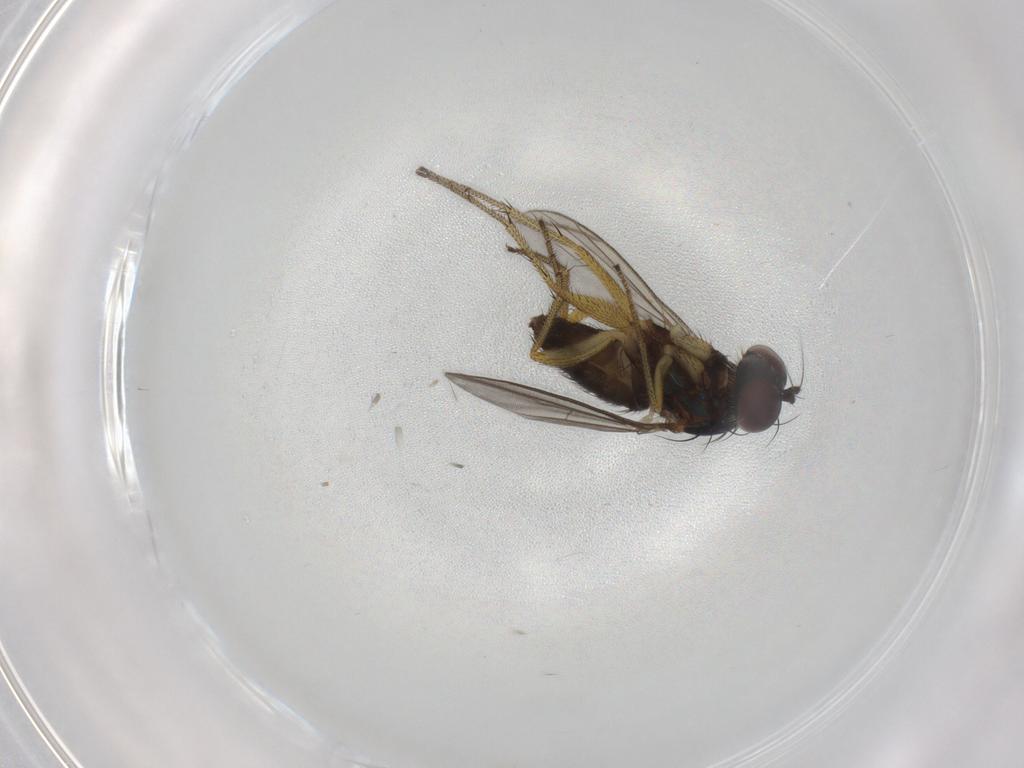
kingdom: Animalia
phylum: Arthropoda
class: Insecta
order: Diptera
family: Dolichopodidae
